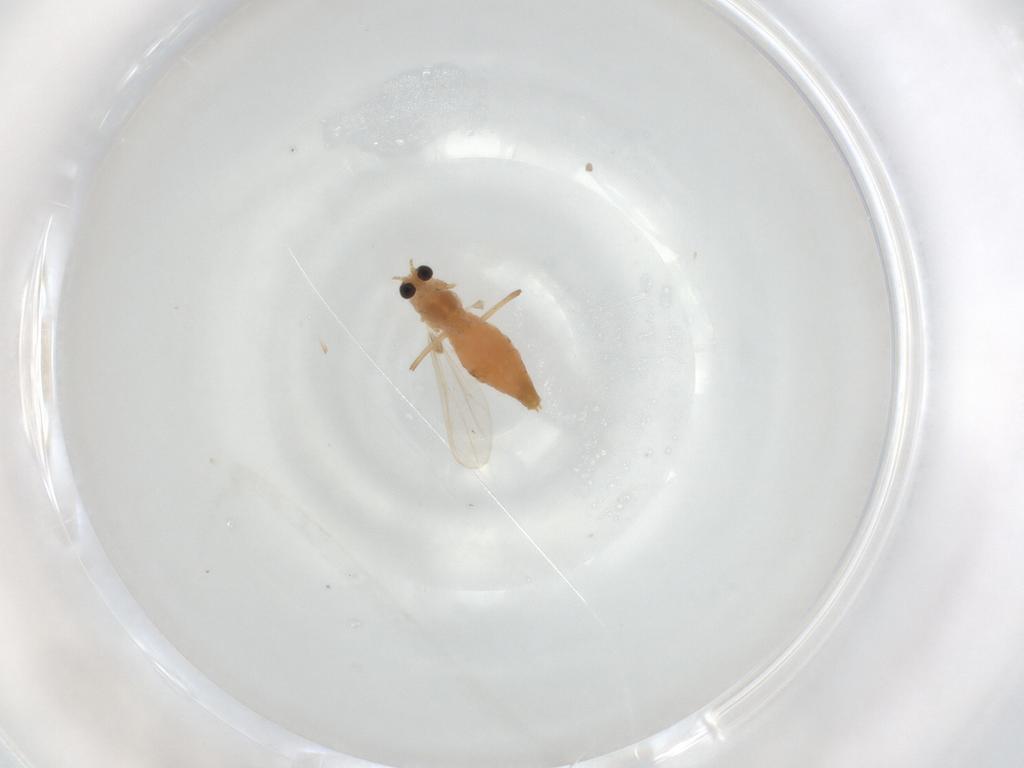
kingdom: Animalia
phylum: Arthropoda
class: Insecta
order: Diptera
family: Chironomidae
